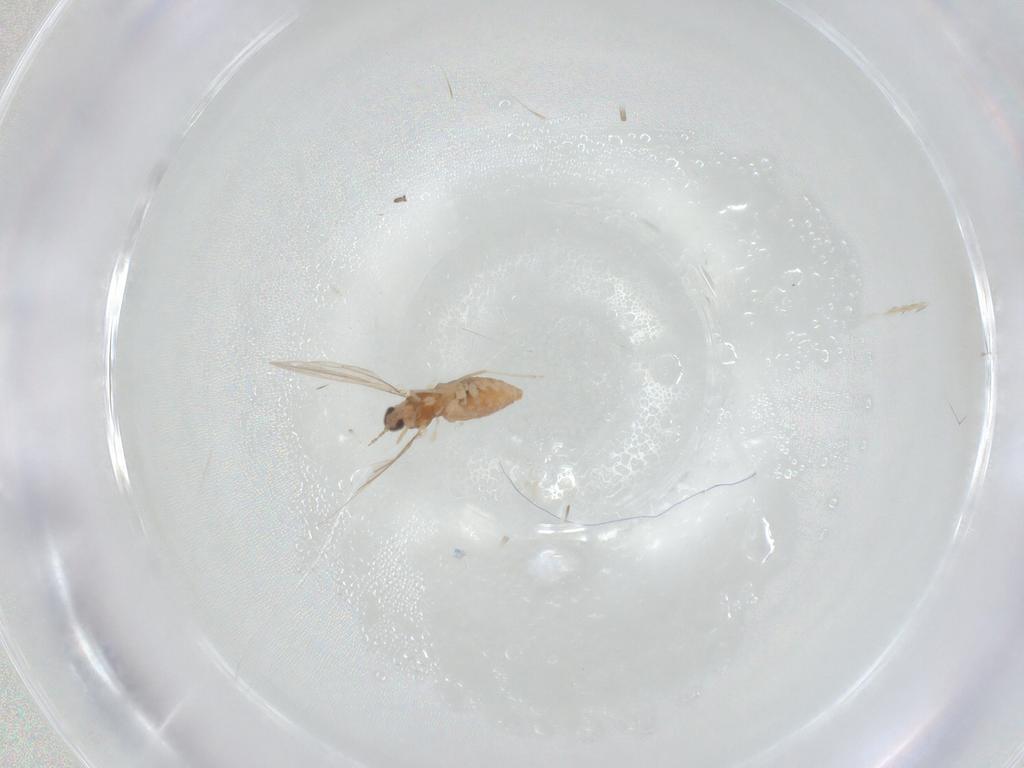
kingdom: Animalia
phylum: Arthropoda
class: Insecta
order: Diptera
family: Cecidomyiidae
